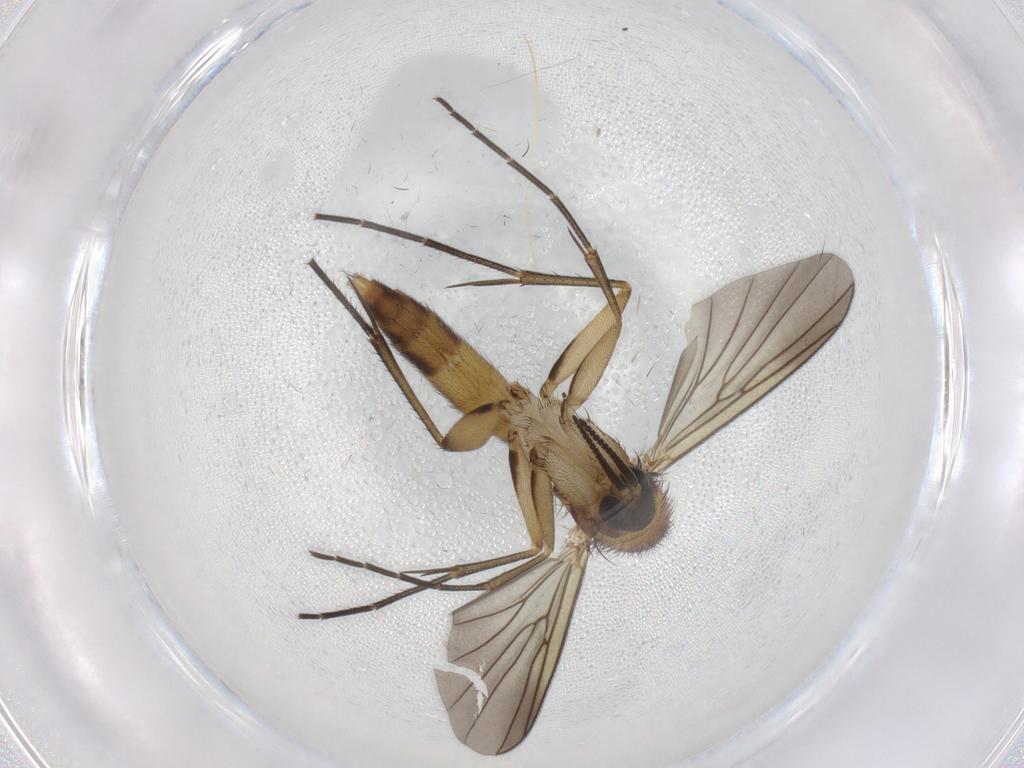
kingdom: Animalia
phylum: Arthropoda
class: Insecta
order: Diptera
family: Mycetophilidae
